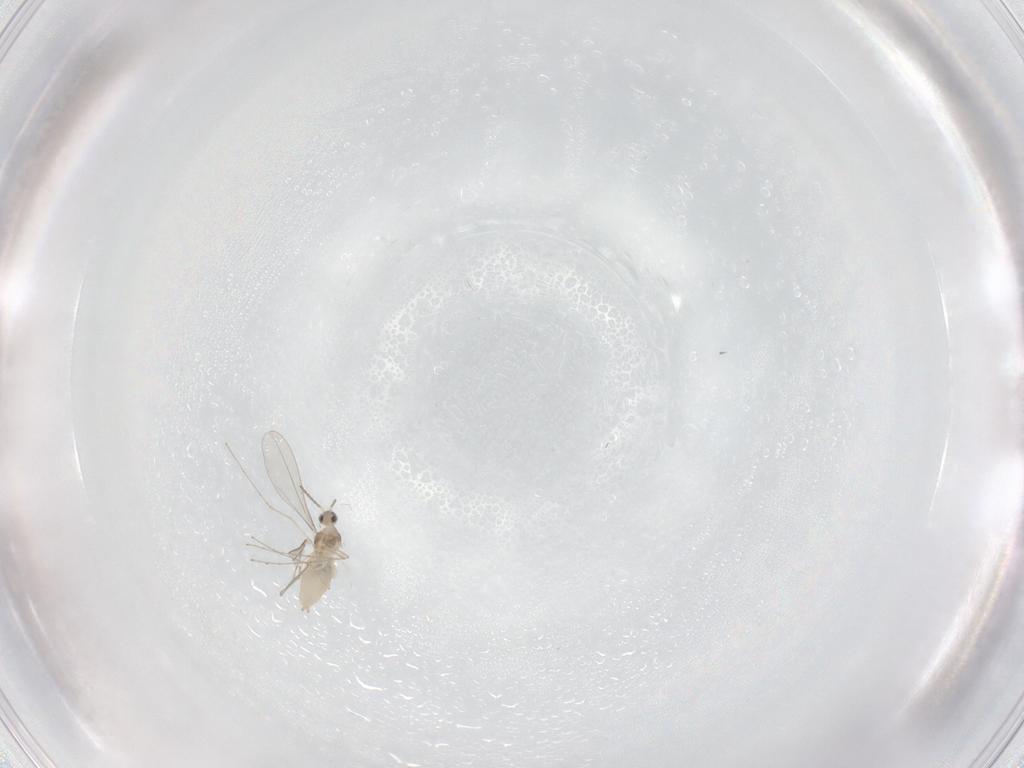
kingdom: Animalia
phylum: Arthropoda
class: Insecta
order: Diptera
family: Cecidomyiidae
